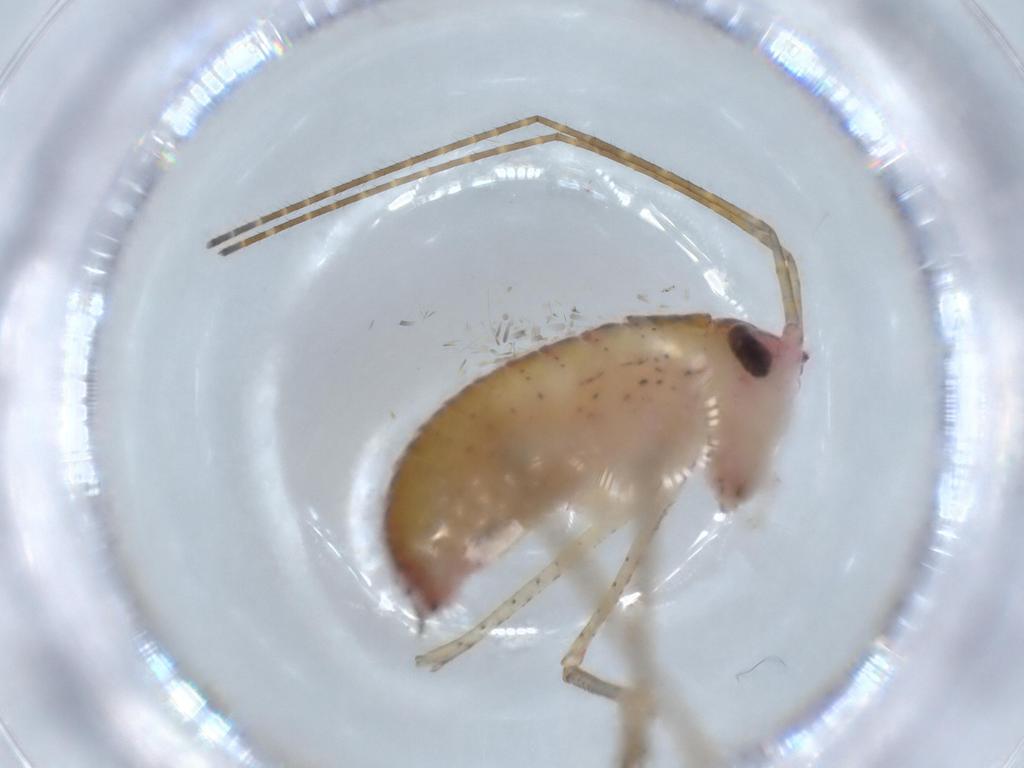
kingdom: Animalia
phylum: Arthropoda
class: Insecta
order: Orthoptera
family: Tettigoniidae
